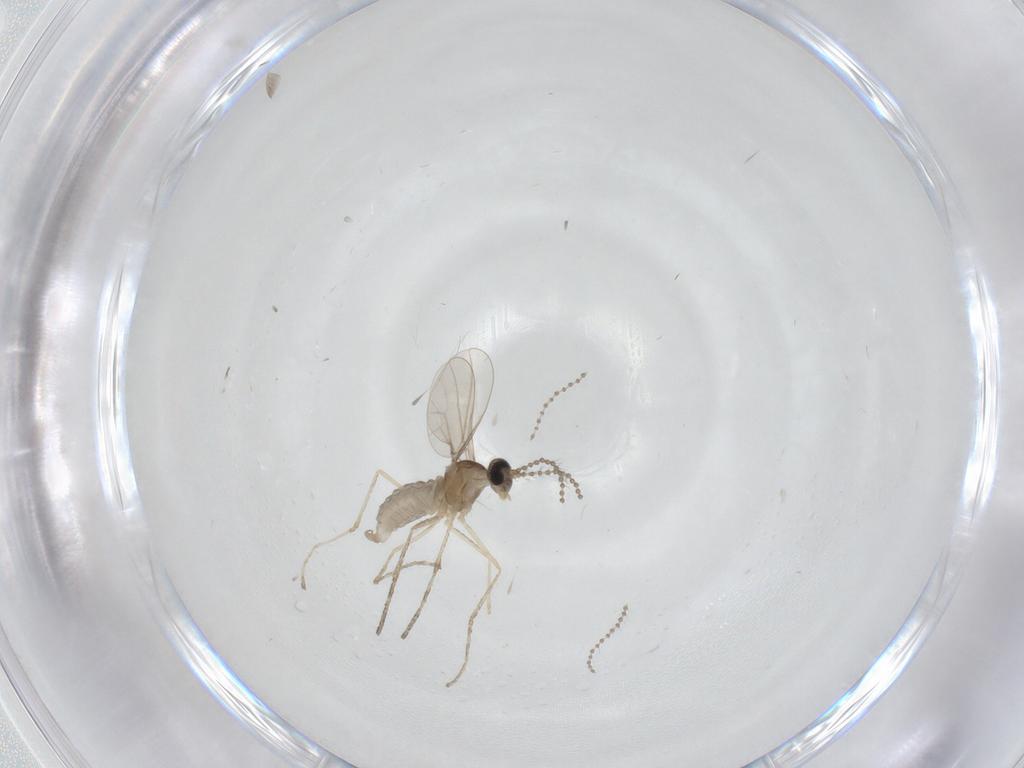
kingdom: Animalia
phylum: Arthropoda
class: Insecta
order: Diptera
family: Cecidomyiidae
